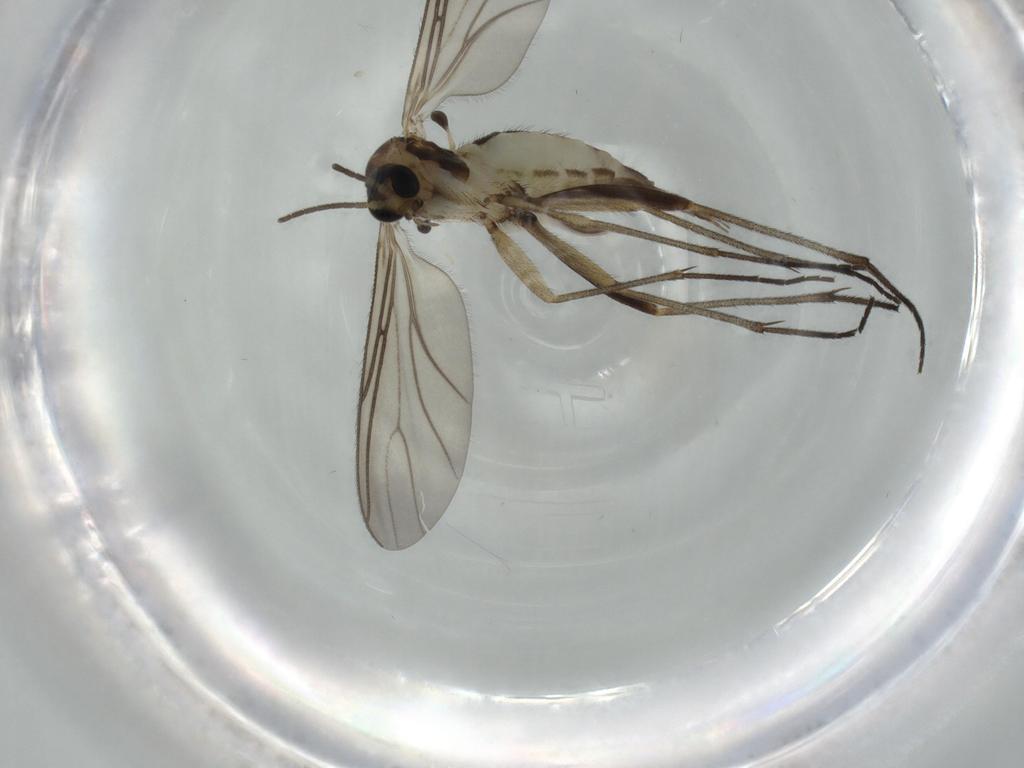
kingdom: Animalia
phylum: Arthropoda
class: Insecta
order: Diptera
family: Sciaridae
